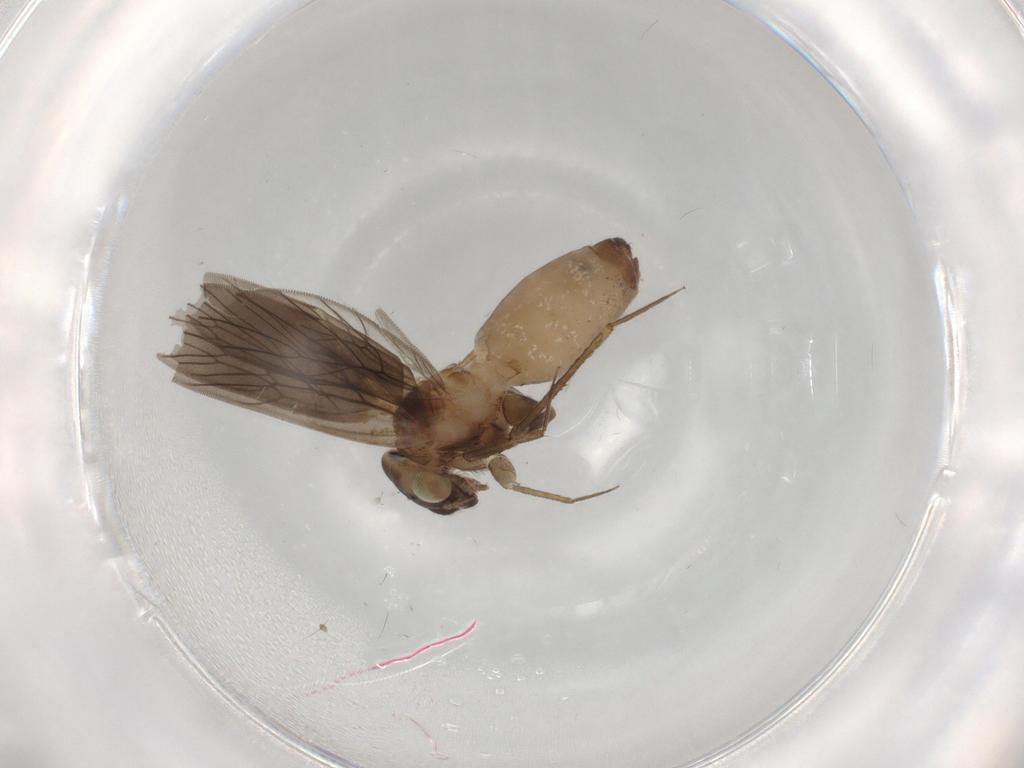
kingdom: Animalia
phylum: Arthropoda
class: Insecta
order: Psocodea
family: Lepidopsocidae
